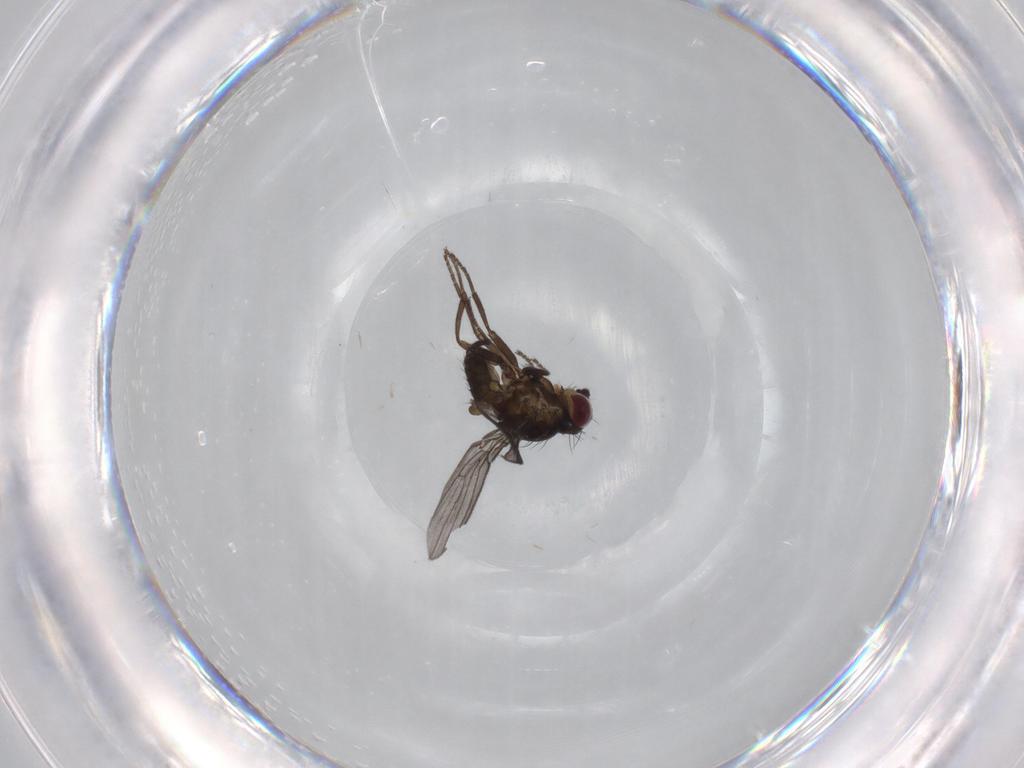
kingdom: Animalia
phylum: Arthropoda
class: Insecta
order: Diptera
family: Agromyzidae
